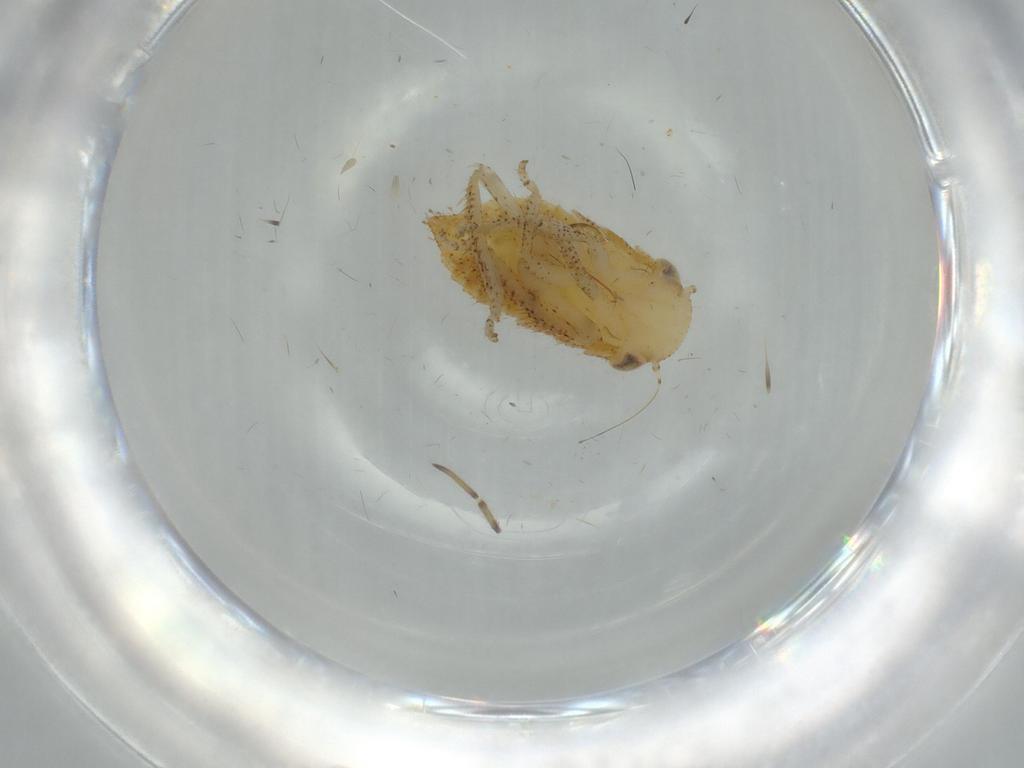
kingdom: Animalia
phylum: Arthropoda
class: Insecta
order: Hemiptera
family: Cicadellidae
